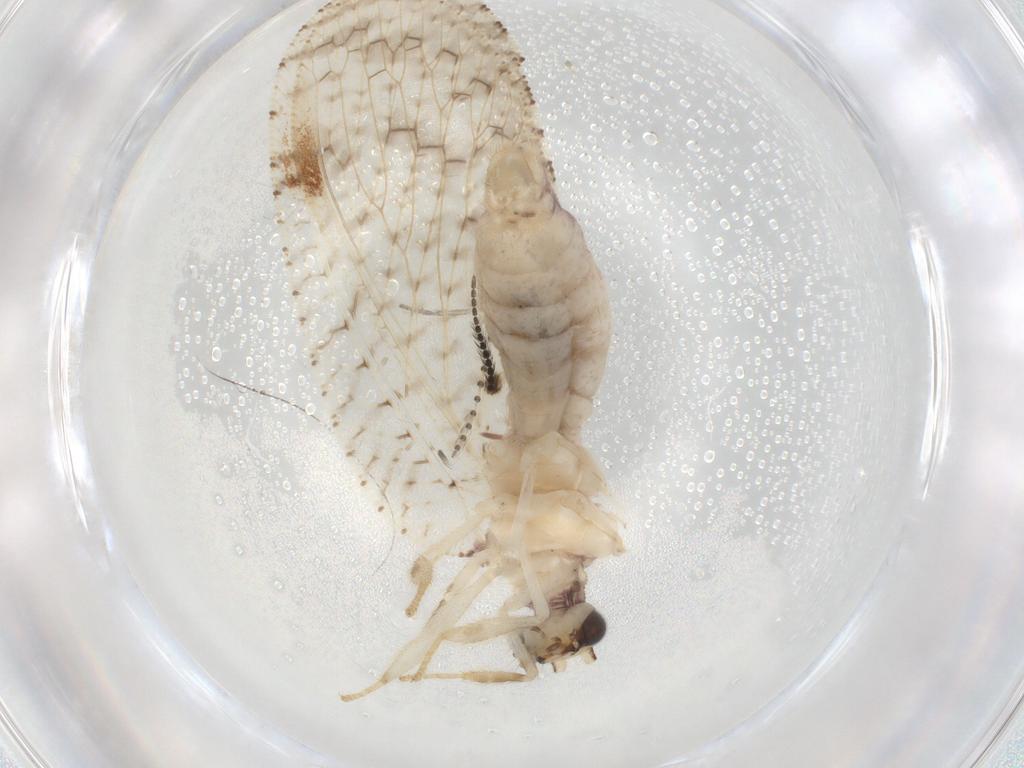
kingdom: Animalia
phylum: Arthropoda
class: Insecta
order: Neuroptera
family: Hemerobiidae
